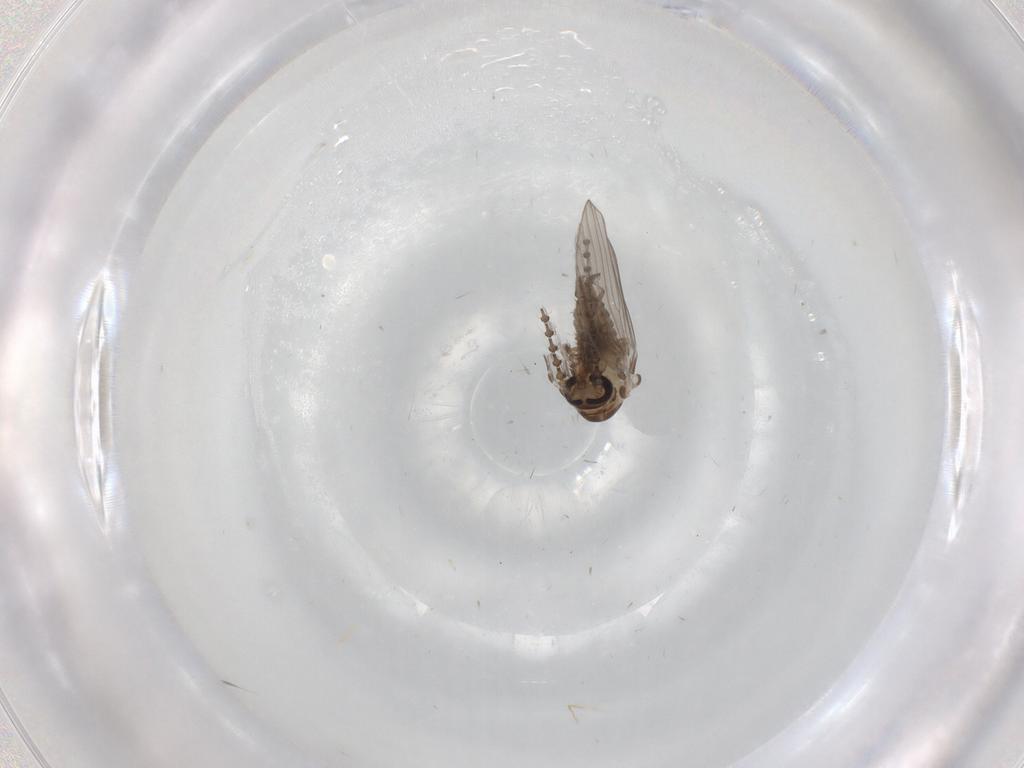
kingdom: Animalia
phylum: Arthropoda
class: Insecta
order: Diptera
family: Psychodidae
